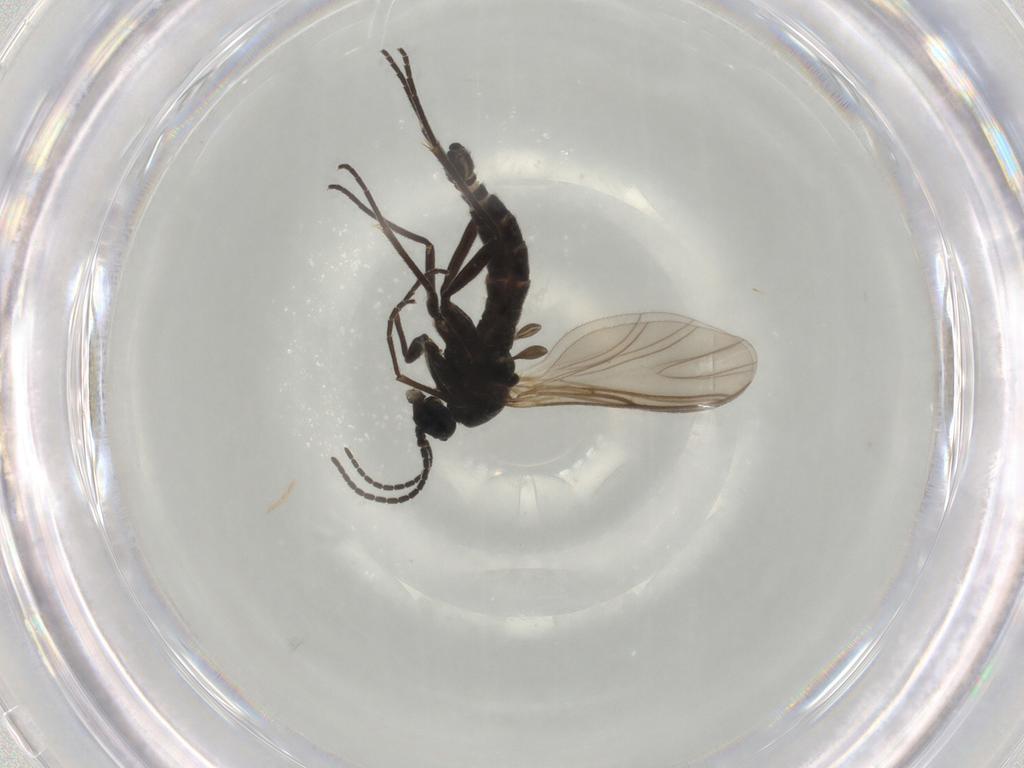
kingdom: Animalia
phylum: Arthropoda
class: Insecta
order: Diptera
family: Sciaridae
